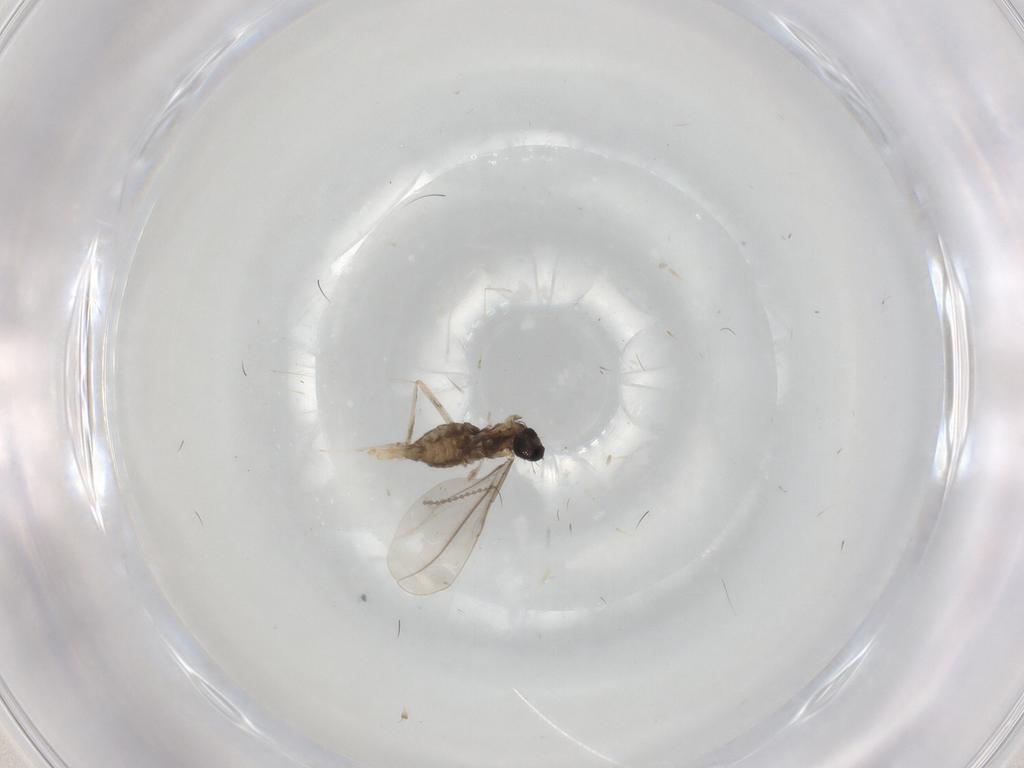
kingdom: Animalia
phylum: Arthropoda
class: Insecta
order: Diptera
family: Cecidomyiidae
